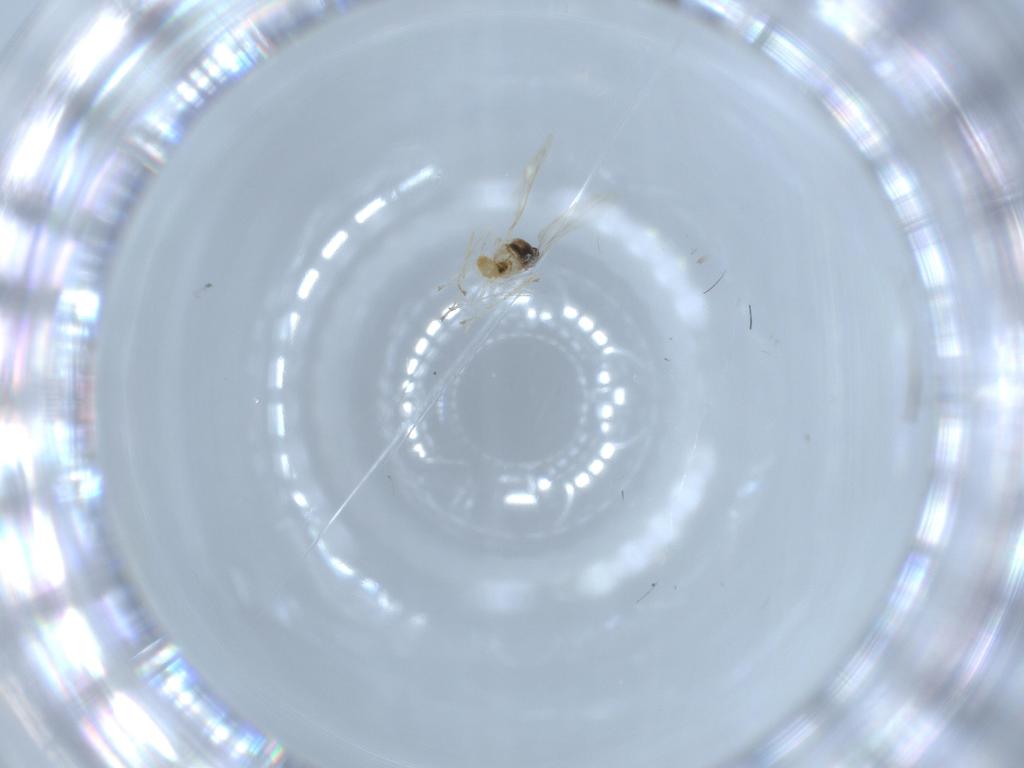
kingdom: Animalia
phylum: Arthropoda
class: Insecta
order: Diptera
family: Cecidomyiidae
